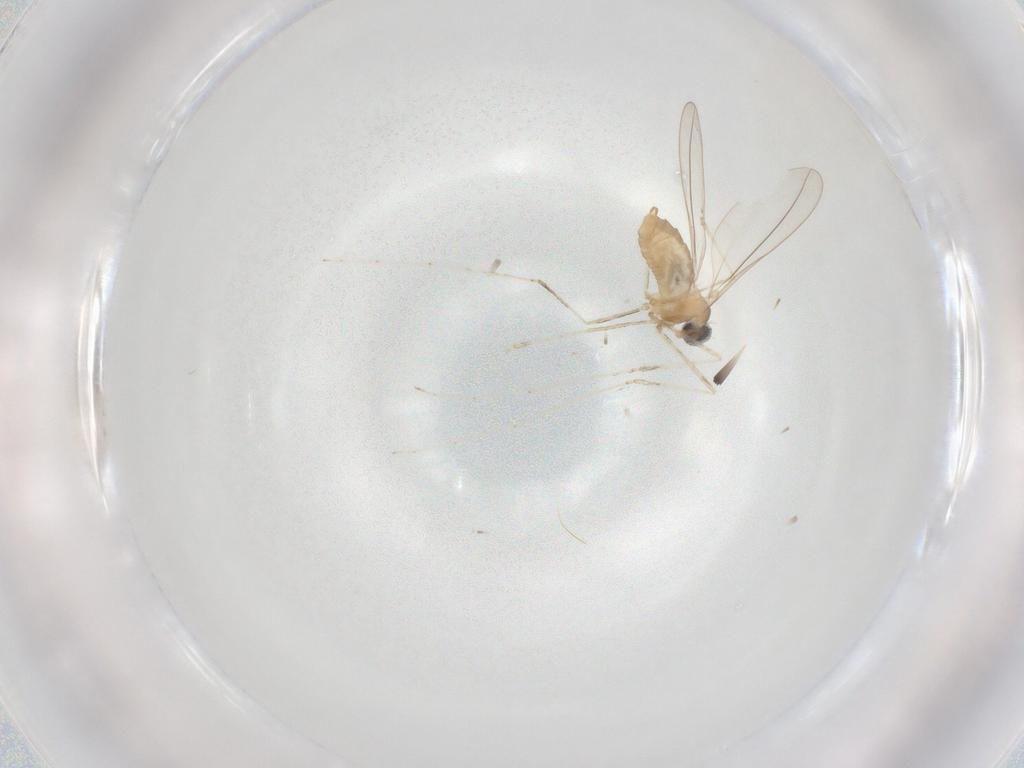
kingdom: Animalia
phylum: Arthropoda
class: Insecta
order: Diptera
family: Cecidomyiidae
